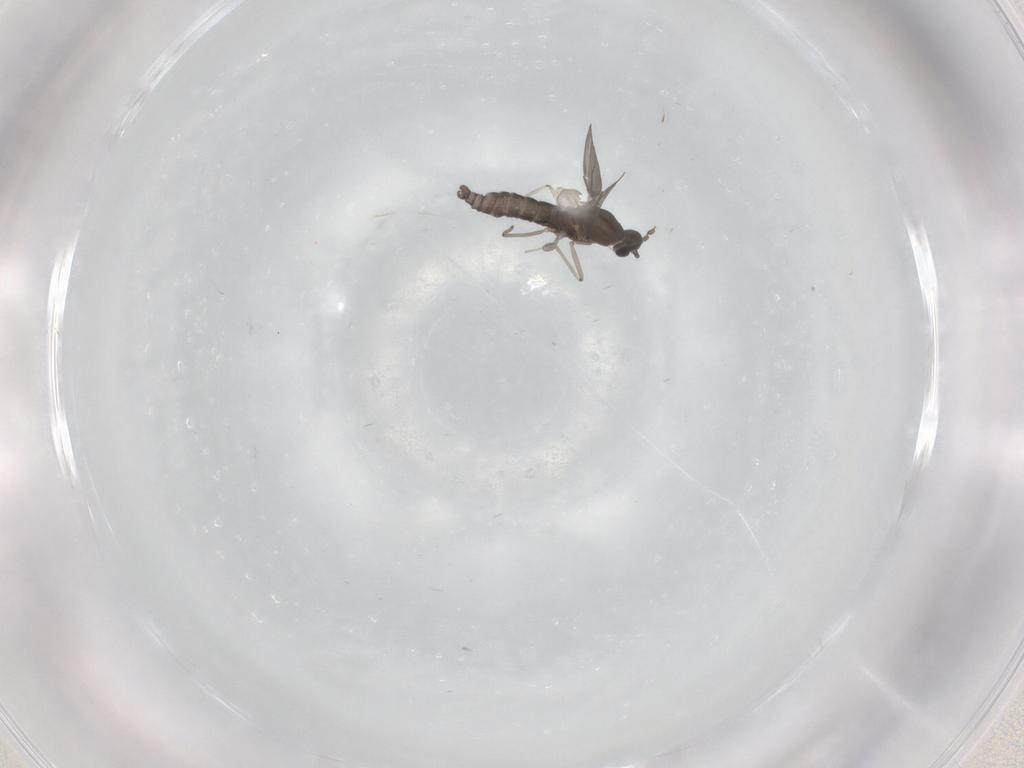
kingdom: Animalia
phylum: Arthropoda
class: Insecta
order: Diptera
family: Cecidomyiidae
